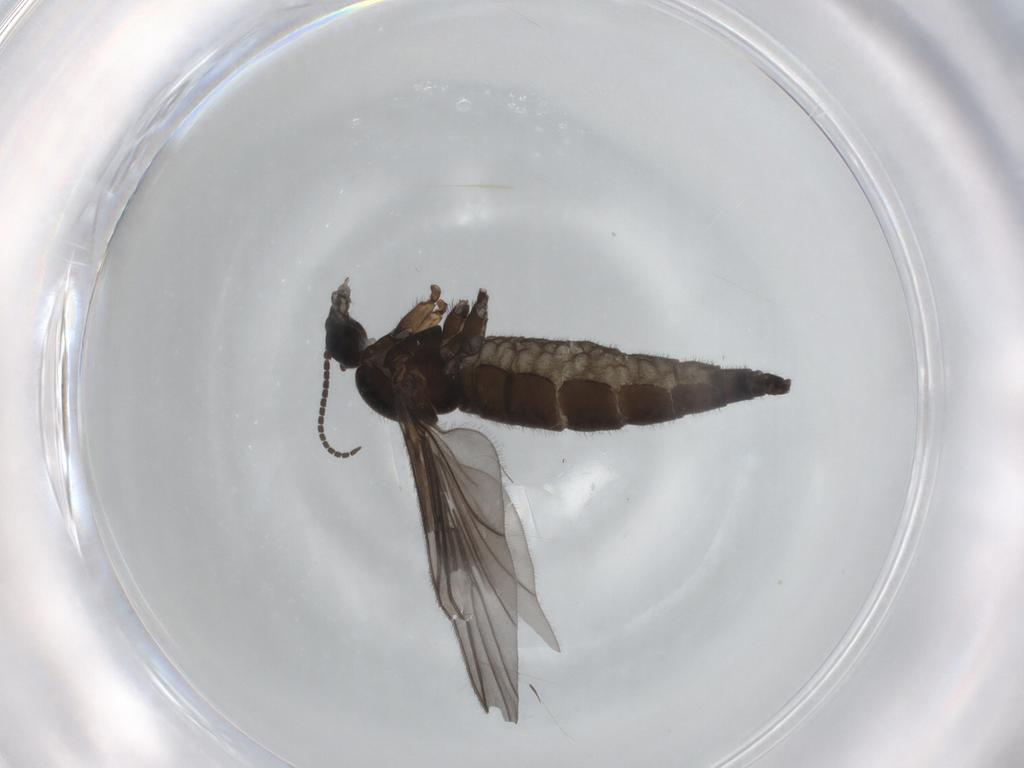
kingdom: Animalia
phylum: Arthropoda
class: Insecta
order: Diptera
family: Sciaridae
